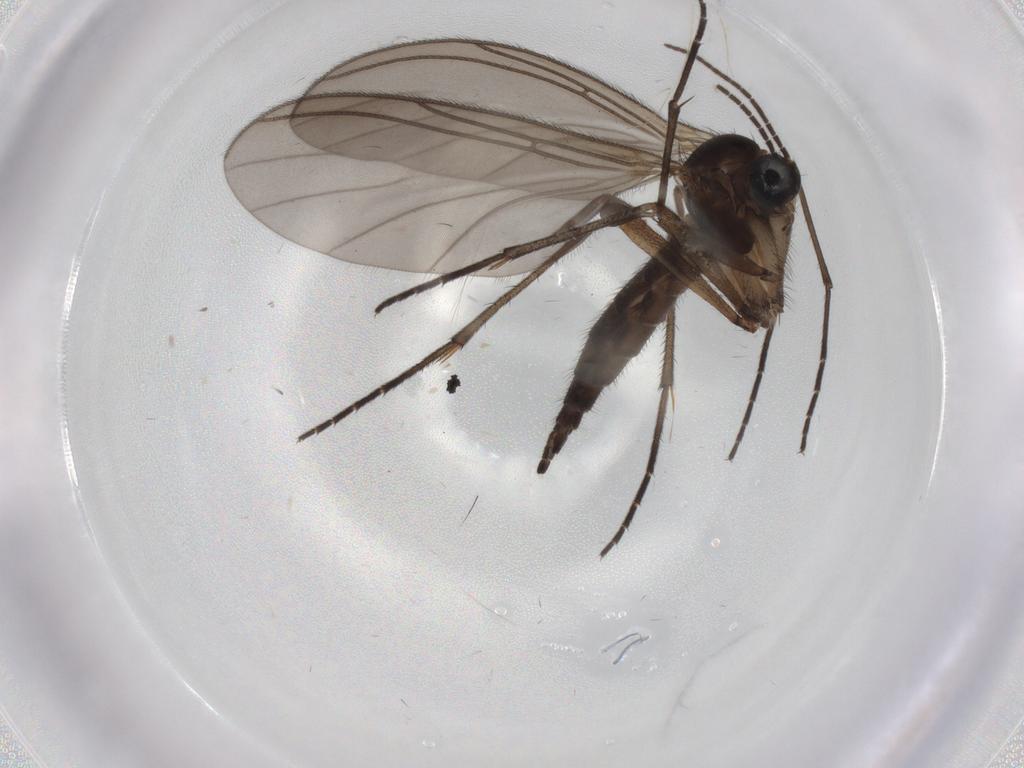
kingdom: Animalia
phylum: Arthropoda
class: Insecta
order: Diptera
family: Sciaridae
